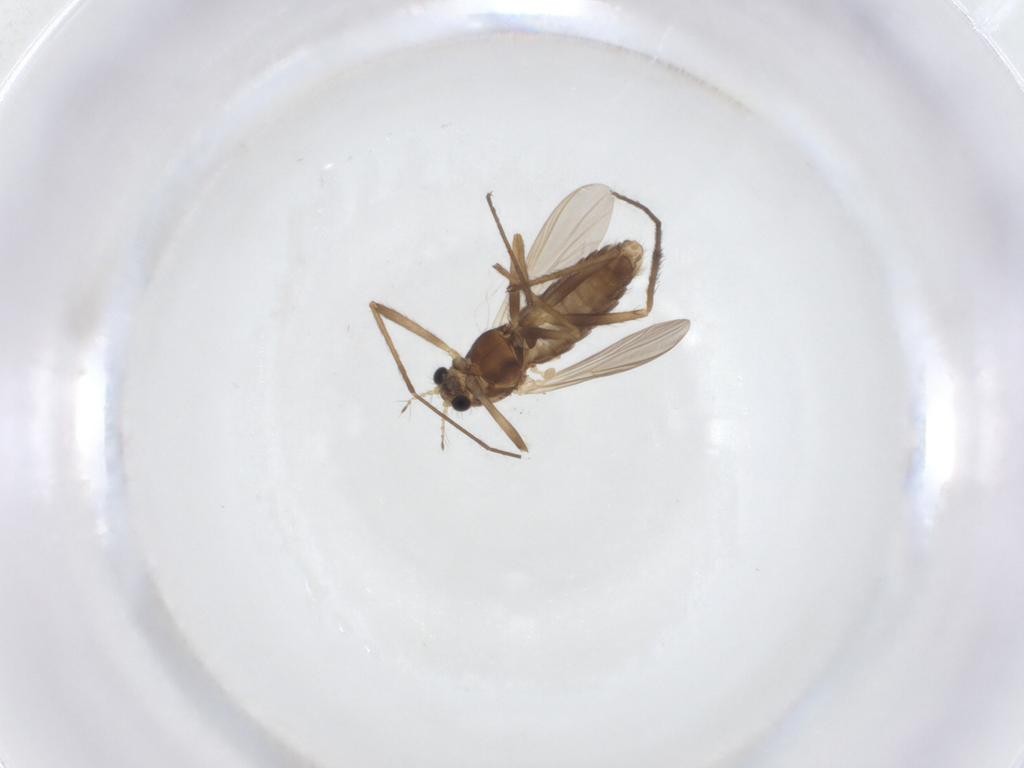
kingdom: Animalia
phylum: Arthropoda
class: Insecta
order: Diptera
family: Chironomidae
